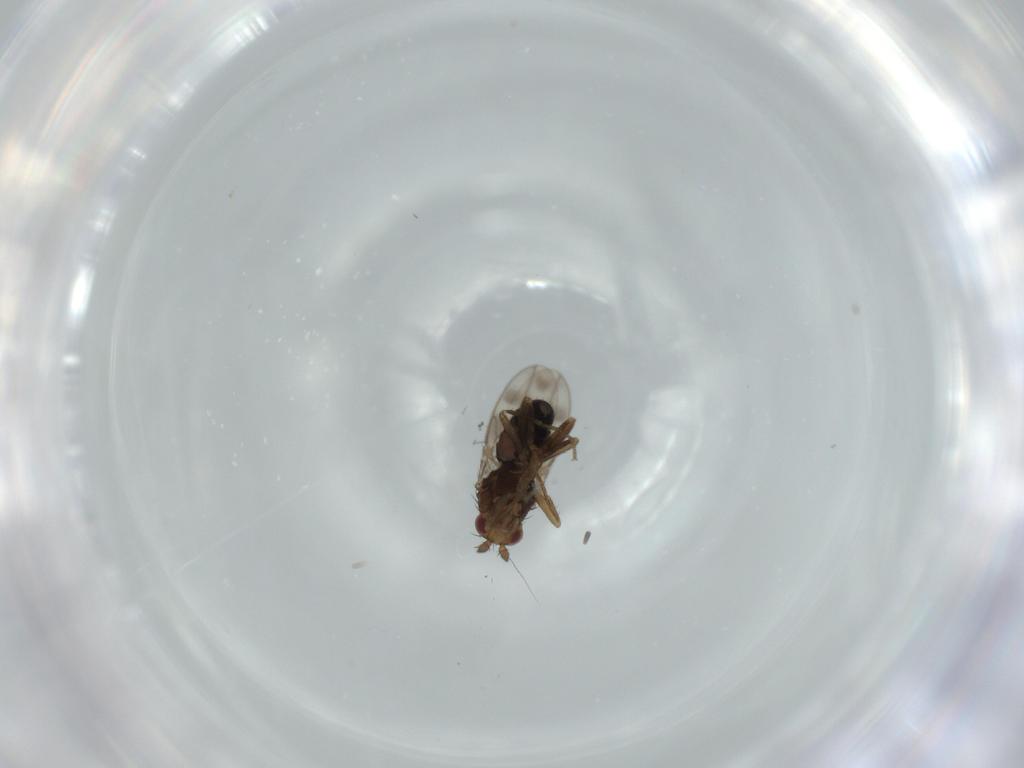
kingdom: Animalia
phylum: Arthropoda
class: Insecta
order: Diptera
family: Sphaeroceridae
